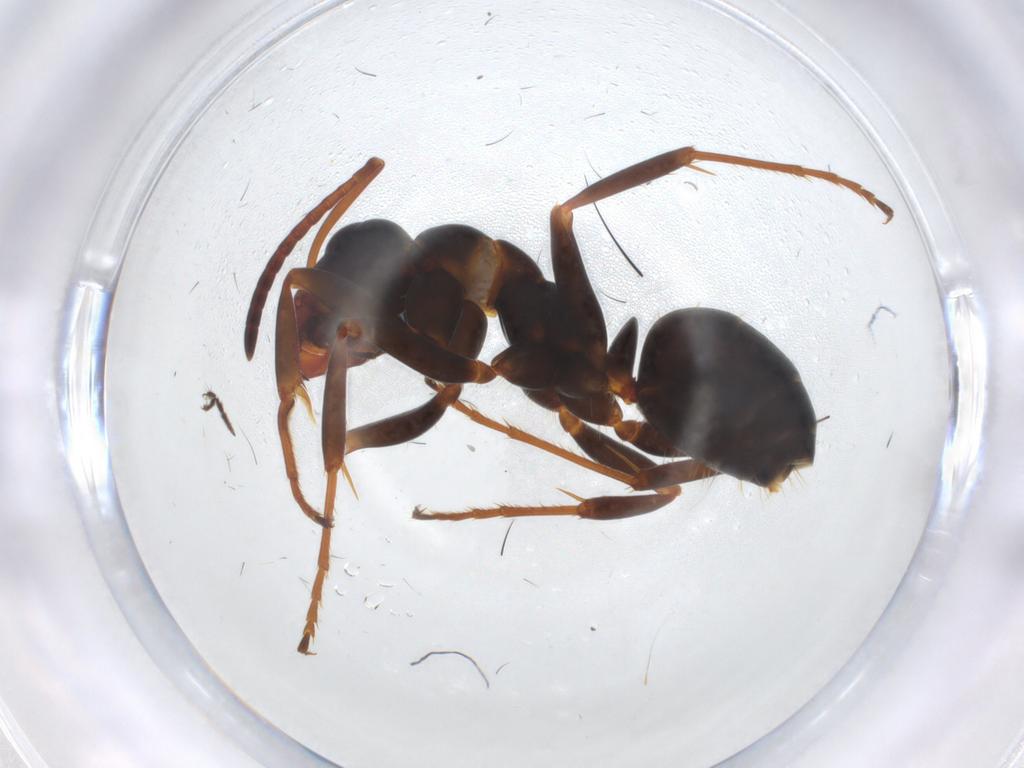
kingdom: Animalia
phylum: Arthropoda
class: Insecta
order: Hymenoptera
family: Formicidae
